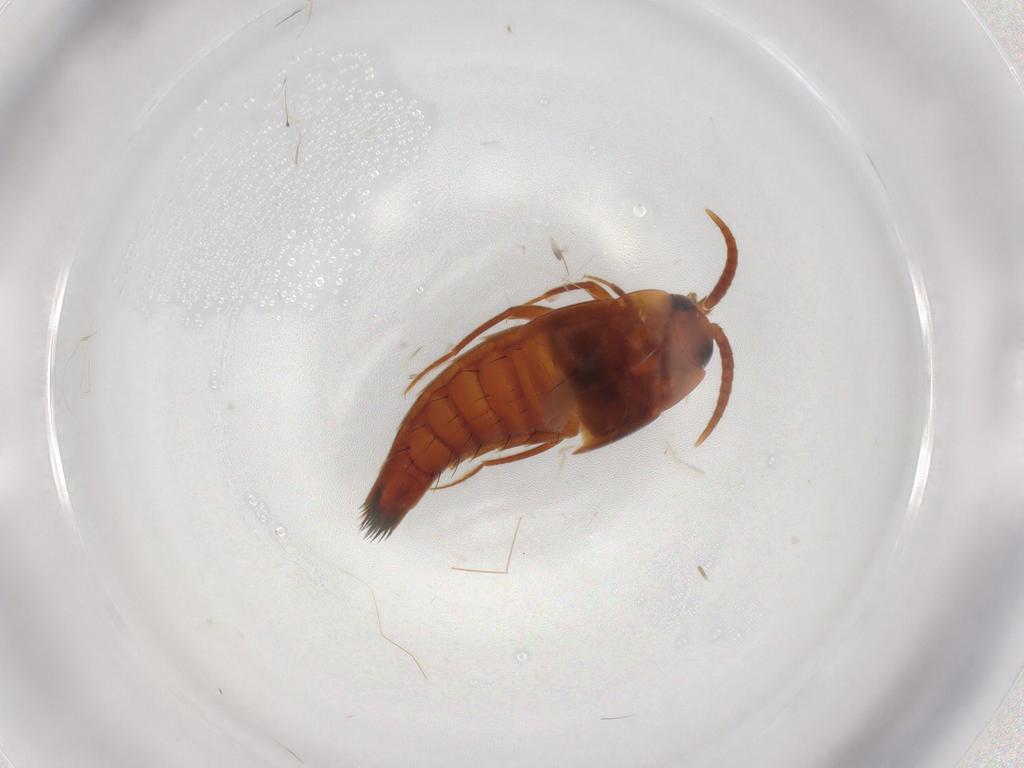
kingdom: Animalia
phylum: Arthropoda
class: Insecta
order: Coleoptera
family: Staphylinidae
